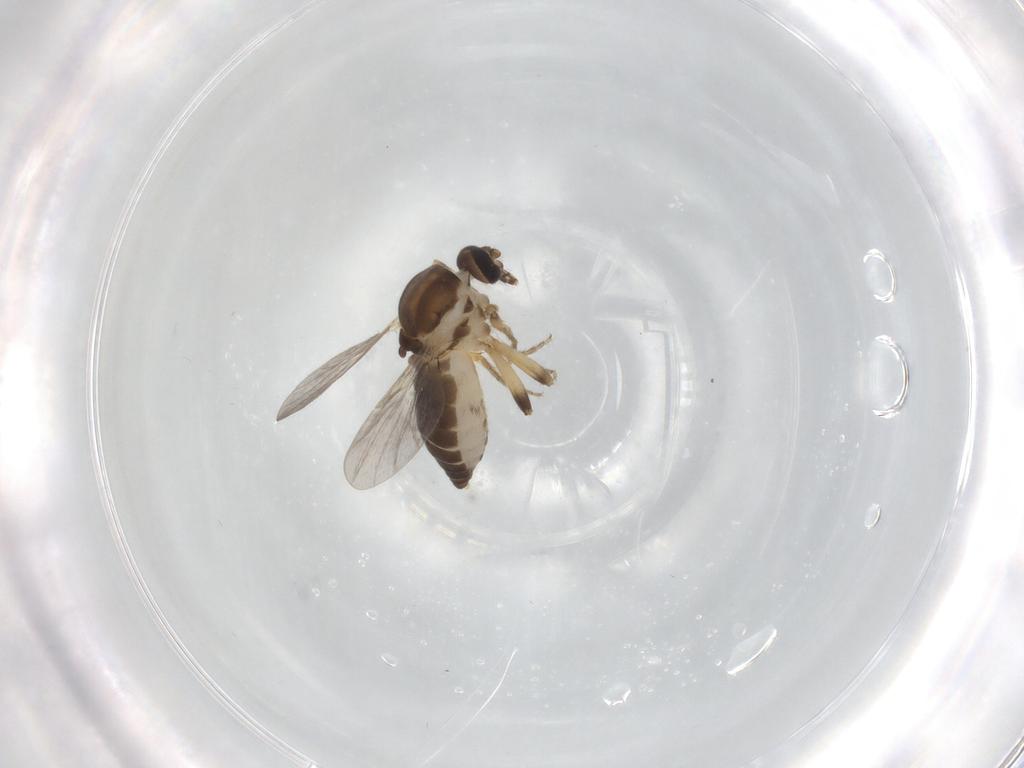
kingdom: Animalia
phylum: Arthropoda
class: Insecta
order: Diptera
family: Ceratopogonidae
